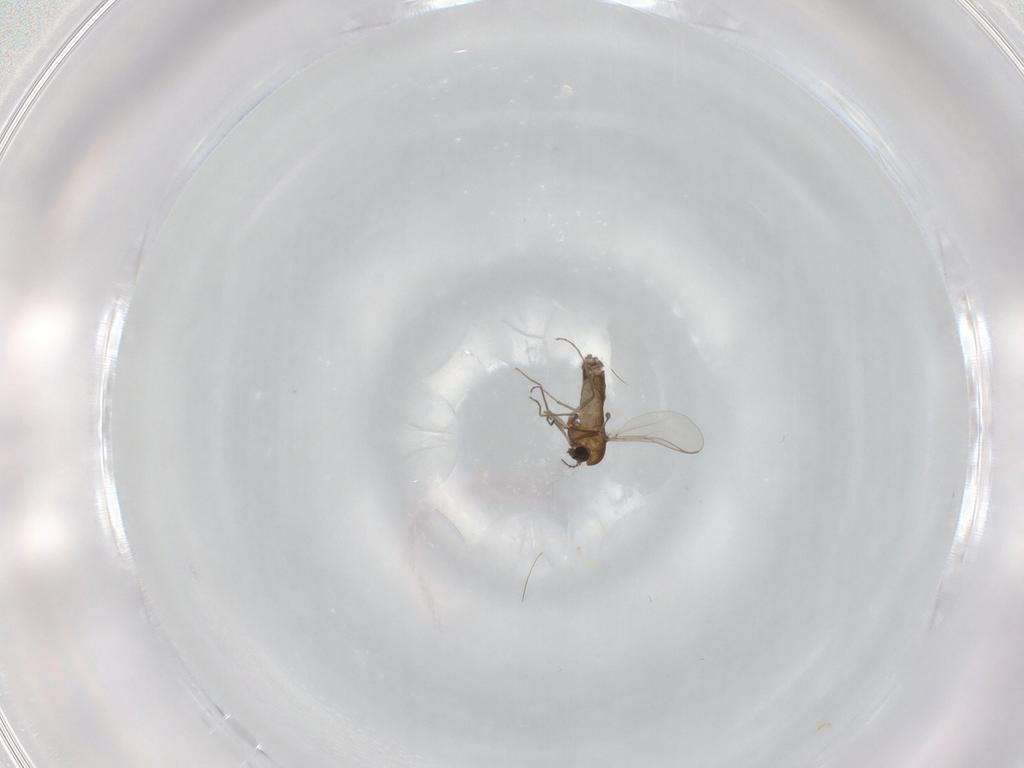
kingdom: Animalia
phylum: Arthropoda
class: Insecta
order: Diptera
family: Chironomidae
